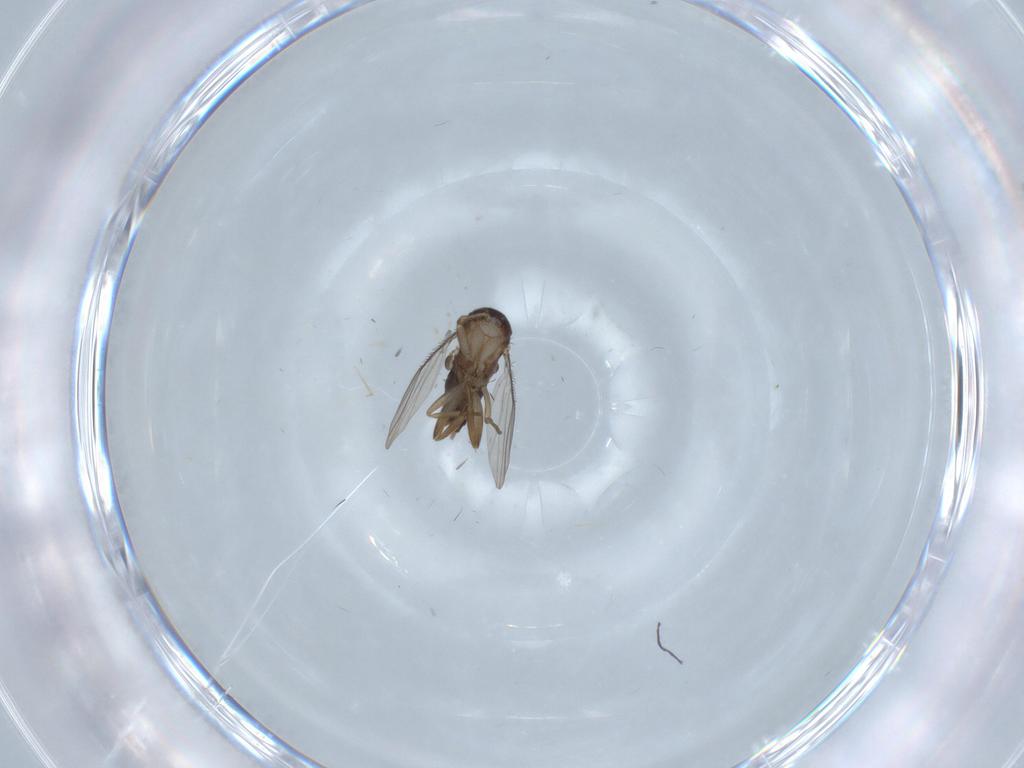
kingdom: Animalia
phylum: Arthropoda
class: Insecta
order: Diptera
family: Phoridae
